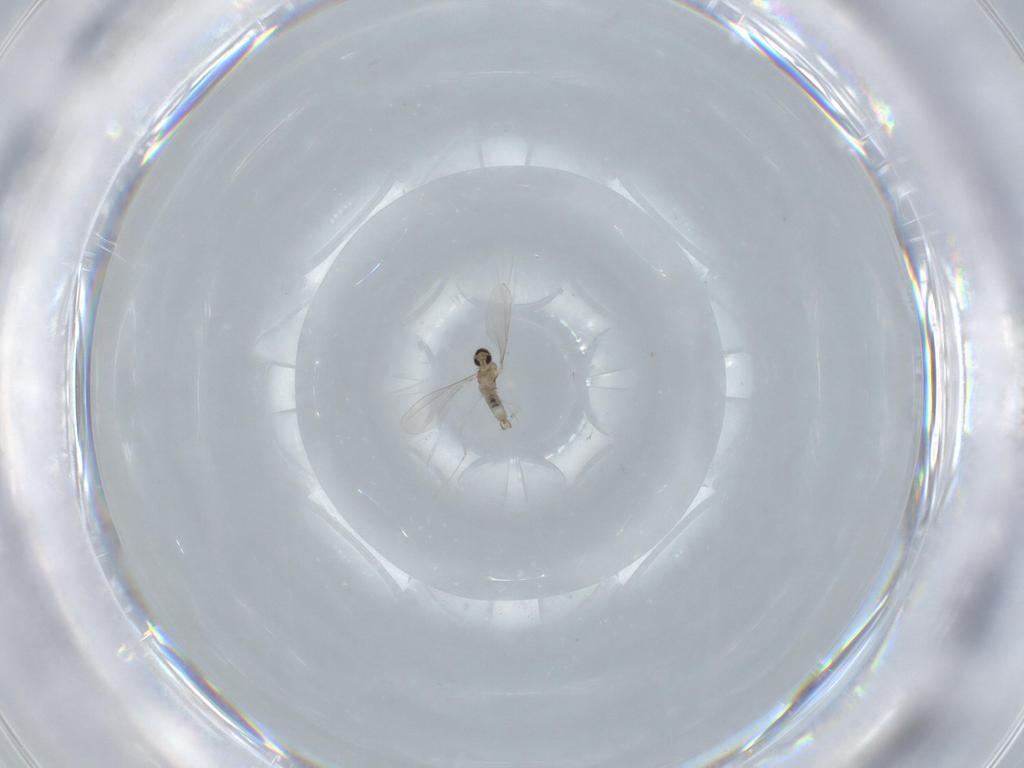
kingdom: Animalia
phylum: Arthropoda
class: Insecta
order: Diptera
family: Cecidomyiidae
